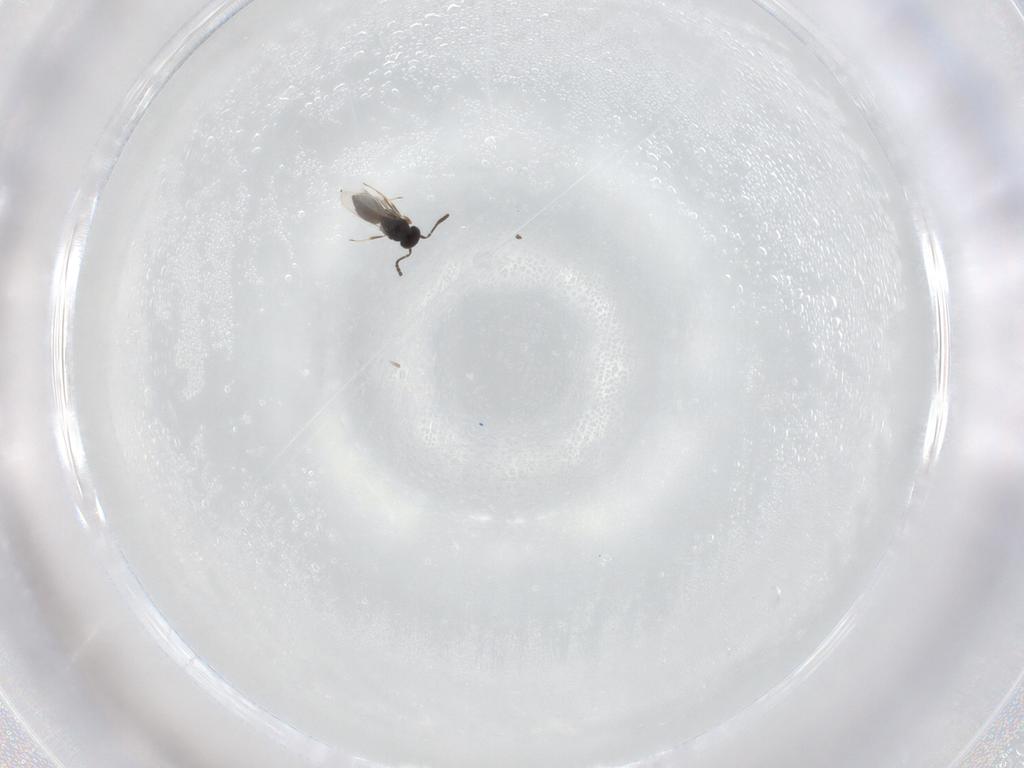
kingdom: Animalia
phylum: Arthropoda
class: Insecta
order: Hymenoptera
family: Scelionidae
